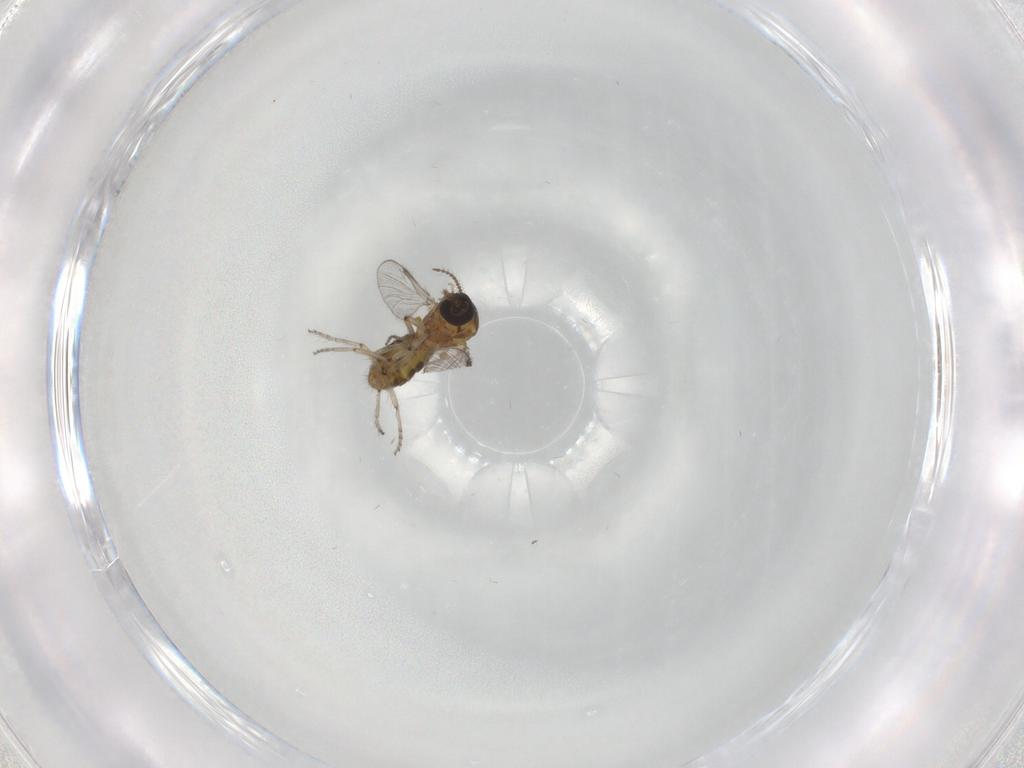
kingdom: Animalia
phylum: Arthropoda
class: Insecta
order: Diptera
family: Ceratopogonidae
